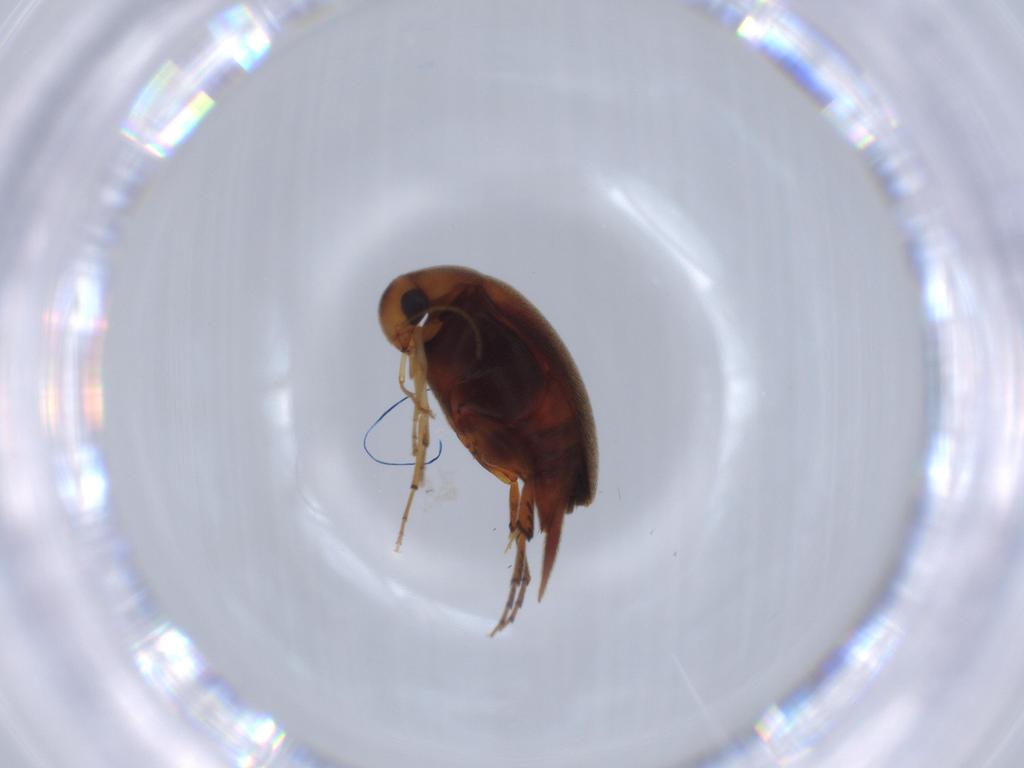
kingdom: Animalia
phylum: Arthropoda
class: Insecta
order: Coleoptera
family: Mordellidae
